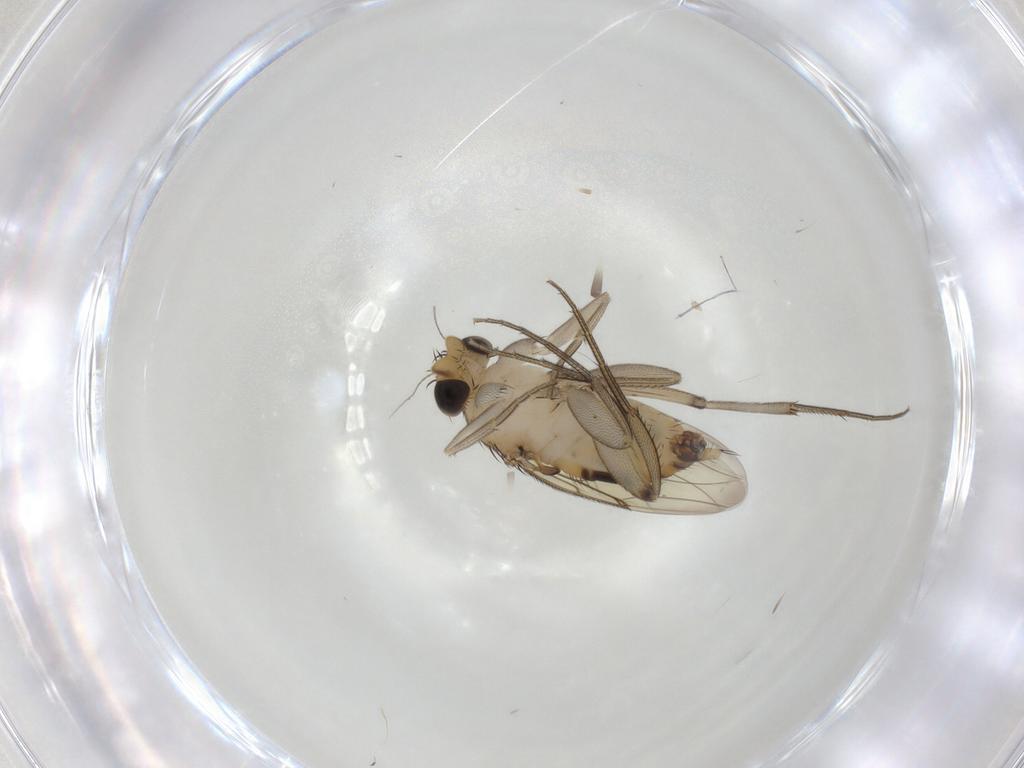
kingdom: Animalia
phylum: Arthropoda
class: Insecta
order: Diptera
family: Phoridae
